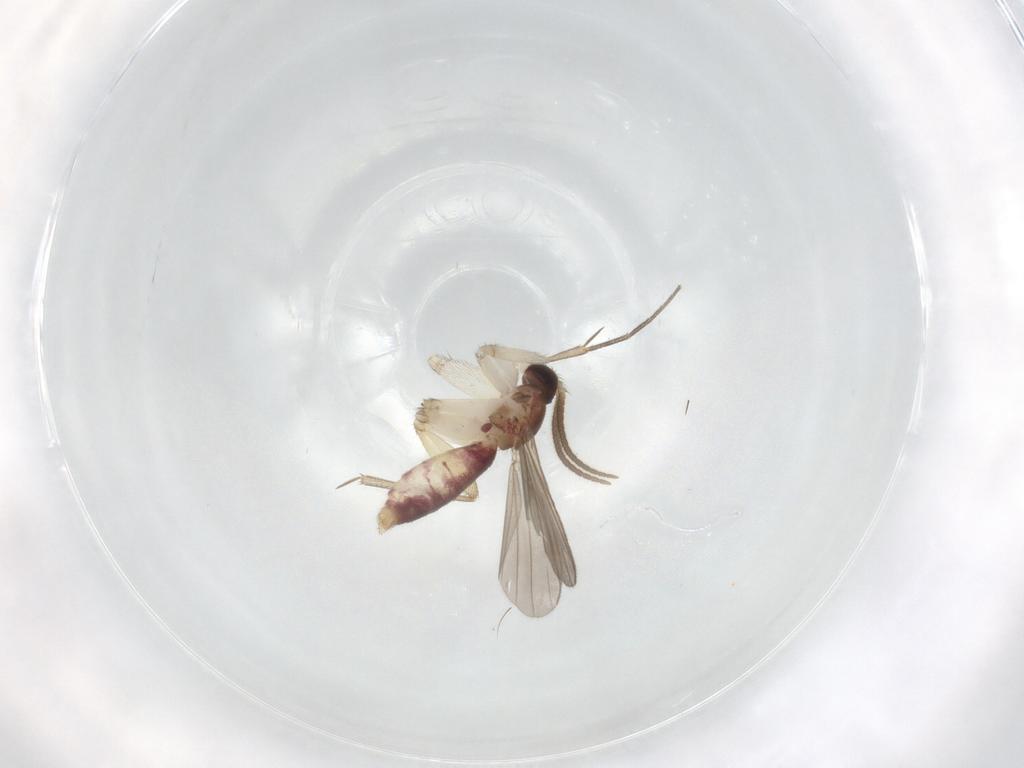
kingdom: Animalia
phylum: Arthropoda
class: Insecta
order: Diptera
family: Mycetophilidae
